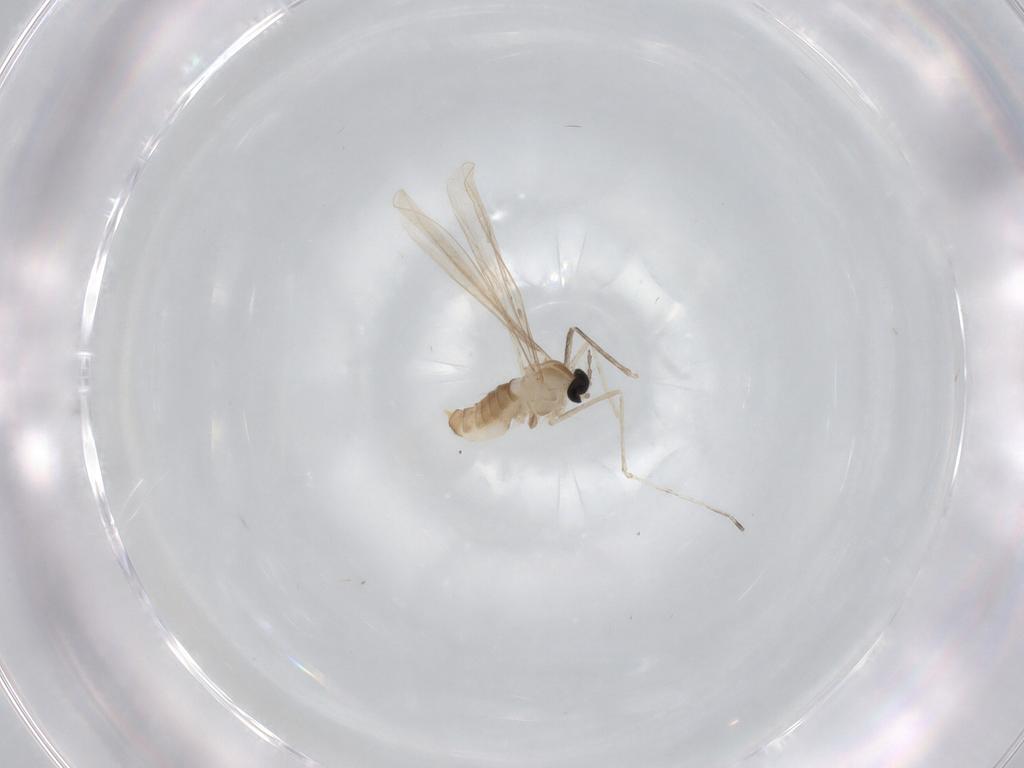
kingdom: Animalia
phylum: Arthropoda
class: Insecta
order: Diptera
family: Cecidomyiidae
